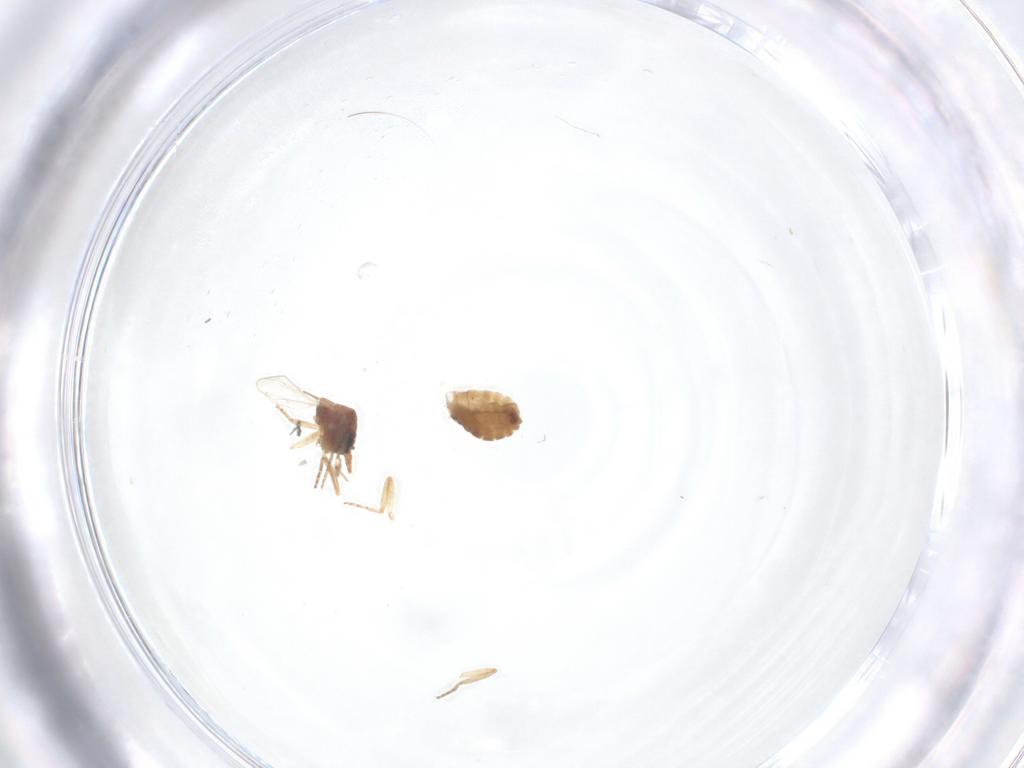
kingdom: Animalia
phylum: Arthropoda
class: Insecta
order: Diptera
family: Ceratopogonidae
